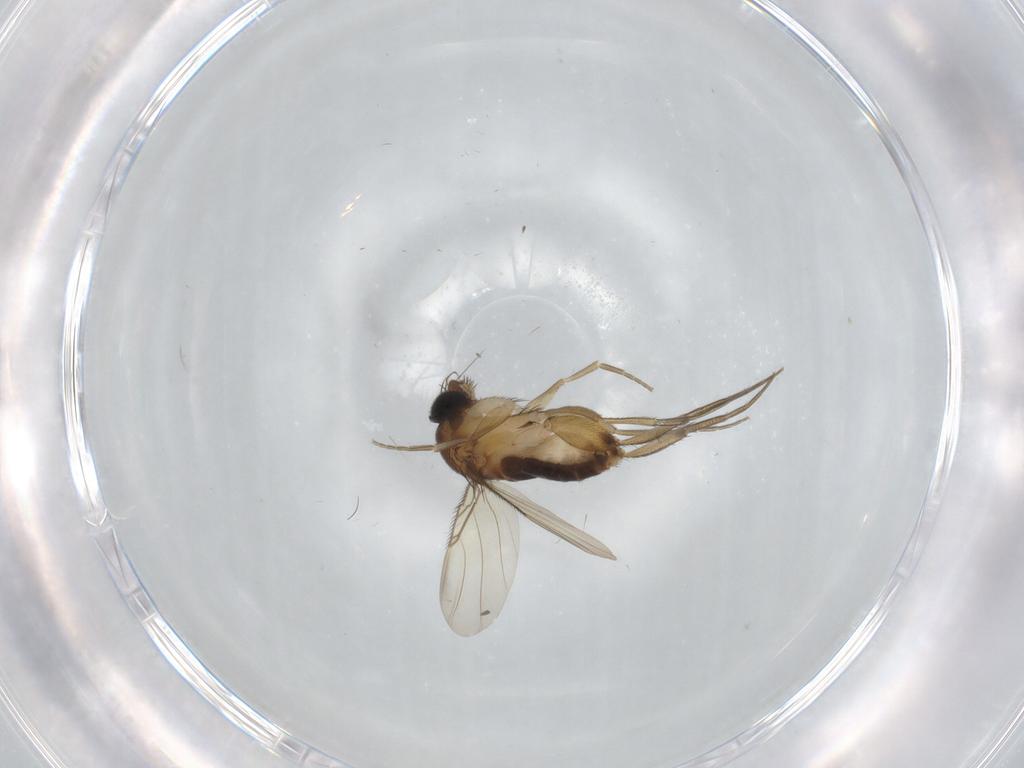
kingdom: Animalia
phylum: Arthropoda
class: Insecta
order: Diptera
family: Phoridae
